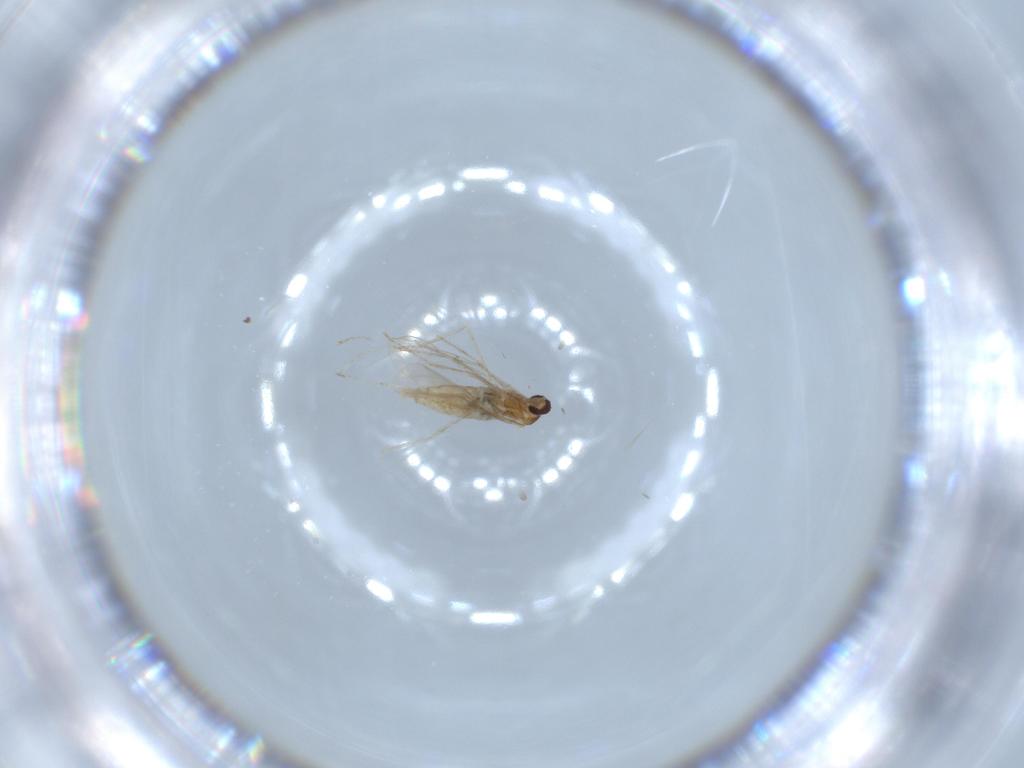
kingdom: Animalia
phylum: Arthropoda
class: Insecta
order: Diptera
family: Cecidomyiidae
